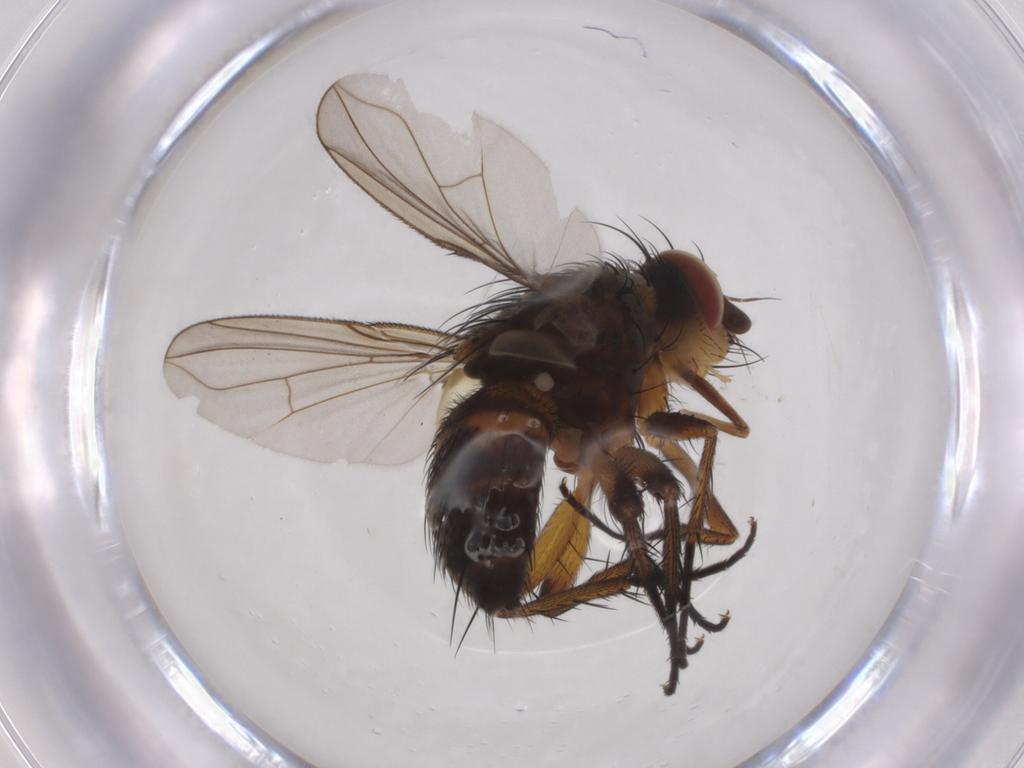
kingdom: Animalia
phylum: Arthropoda
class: Insecta
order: Diptera
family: Tachinidae
